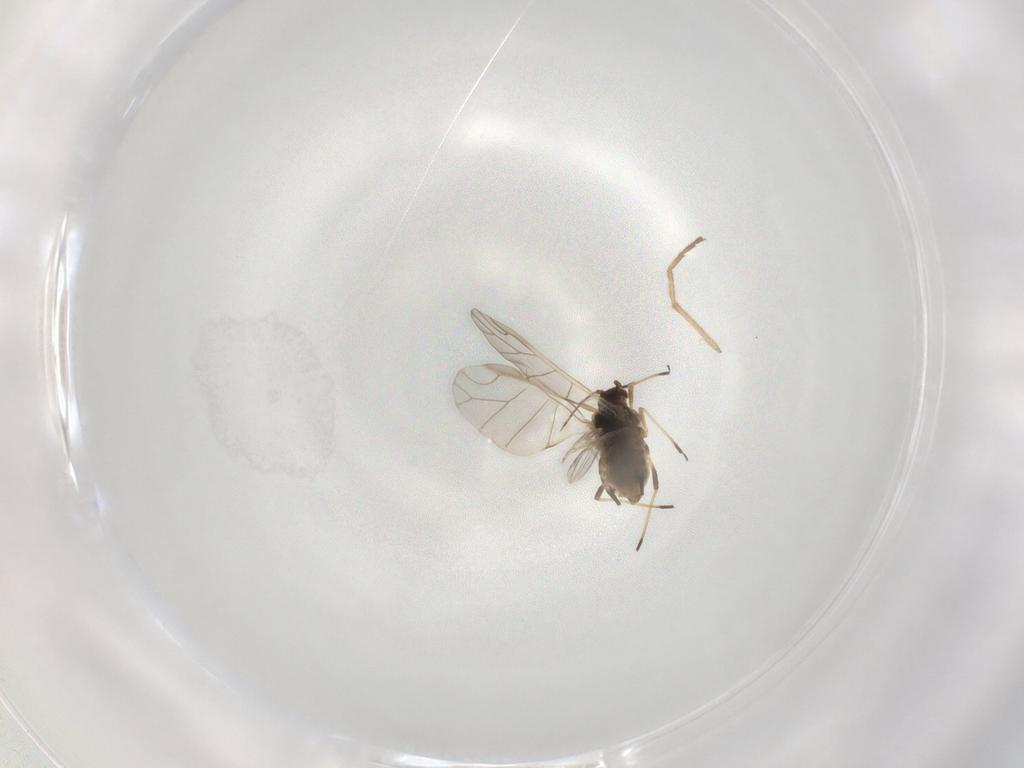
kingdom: Animalia
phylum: Arthropoda
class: Insecta
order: Hemiptera
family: Aphididae
